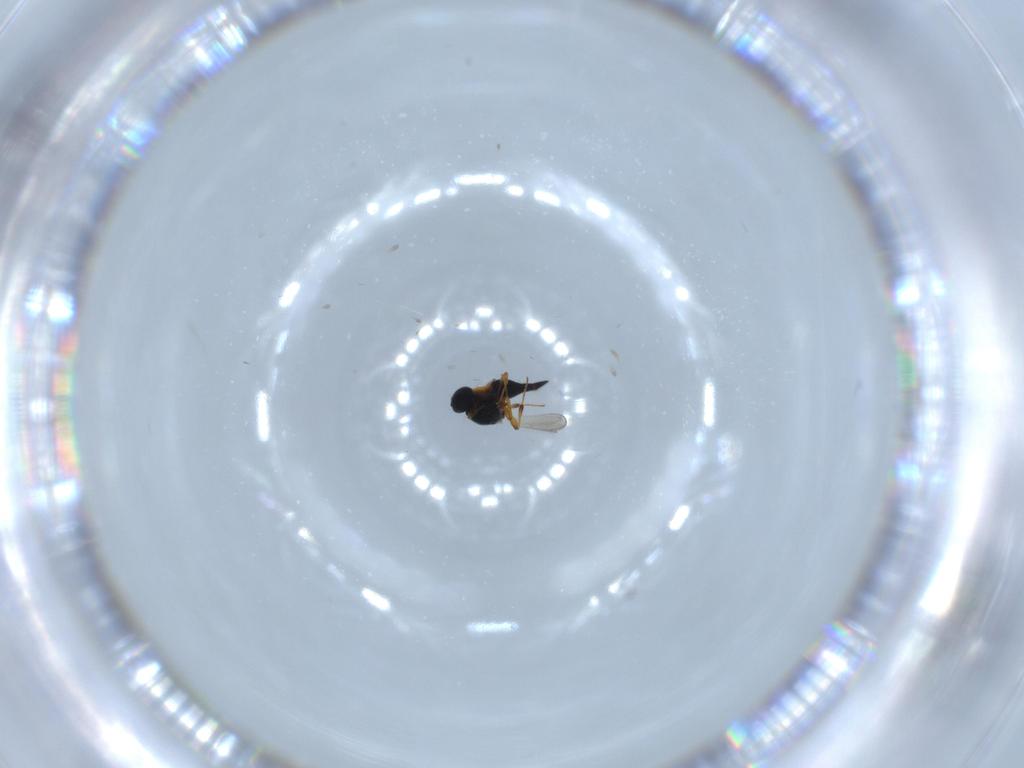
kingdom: Animalia
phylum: Arthropoda
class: Insecta
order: Hymenoptera
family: Platygastridae
